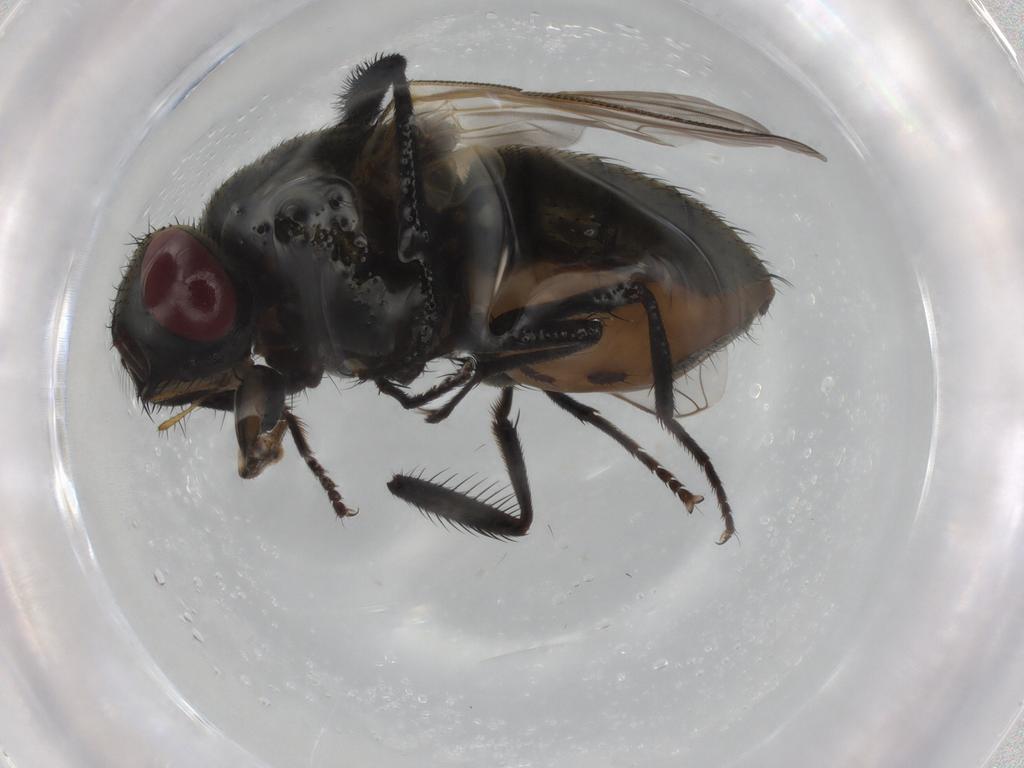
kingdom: Animalia
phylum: Arthropoda
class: Insecta
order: Diptera
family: Muscidae
